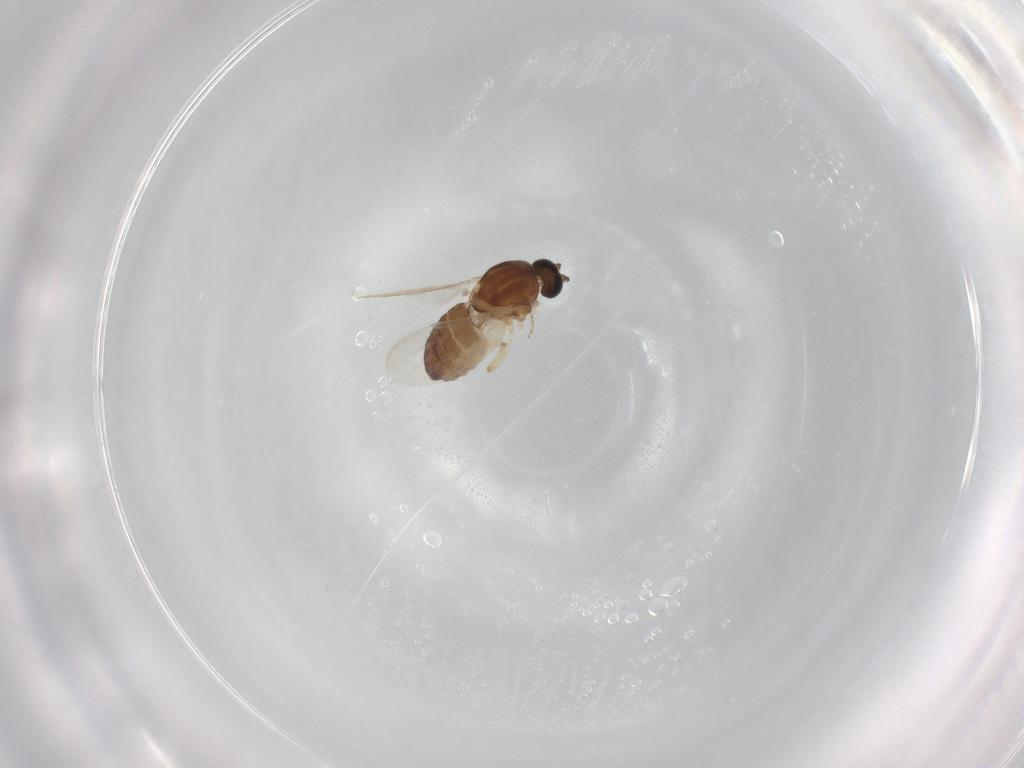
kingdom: Animalia
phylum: Arthropoda
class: Insecta
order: Diptera
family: Ceratopogonidae
